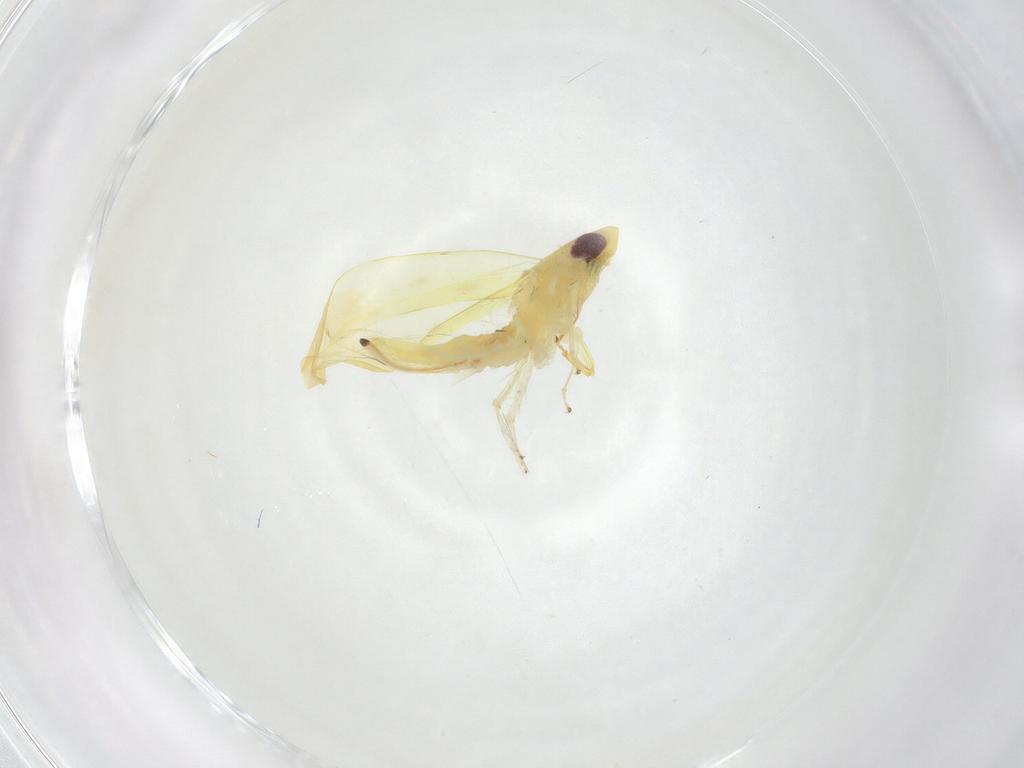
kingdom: Animalia
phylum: Arthropoda
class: Insecta
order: Hemiptera
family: Cicadellidae
